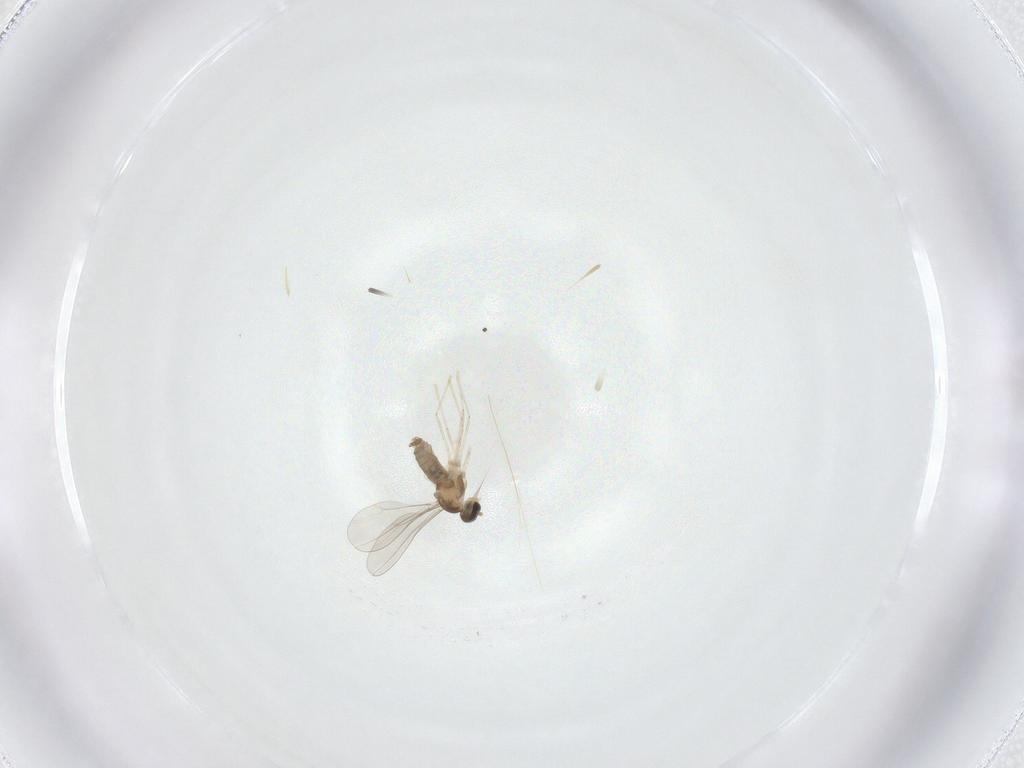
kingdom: Animalia
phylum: Arthropoda
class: Insecta
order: Diptera
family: Cecidomyiidae
